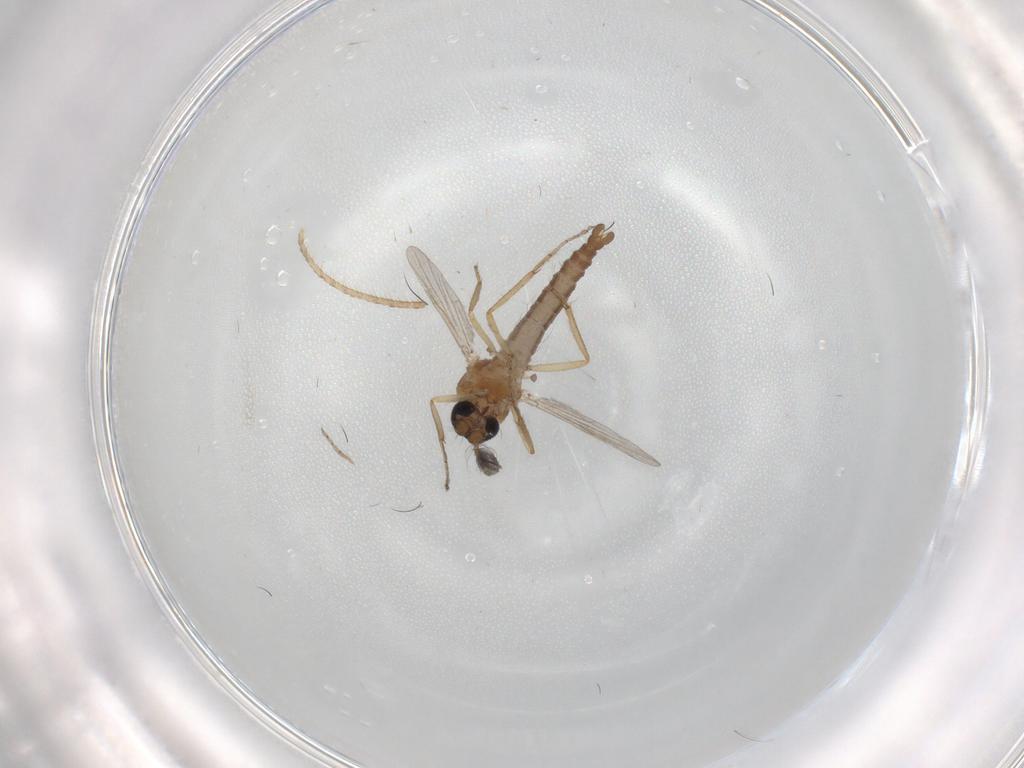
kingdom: Animalia
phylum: Arthropoda
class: Insecta
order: Diptera
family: Ceratopogonidae
